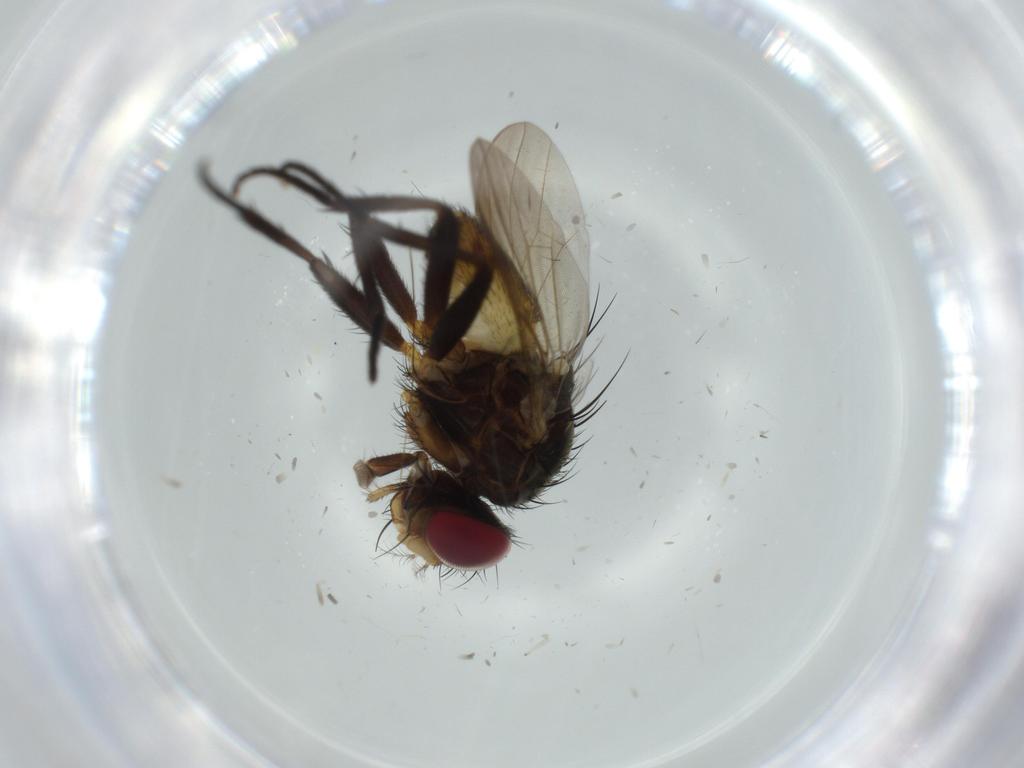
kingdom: Animalia
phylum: Arthropoda
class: Insecta
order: Diptera
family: Anthomyiidae
